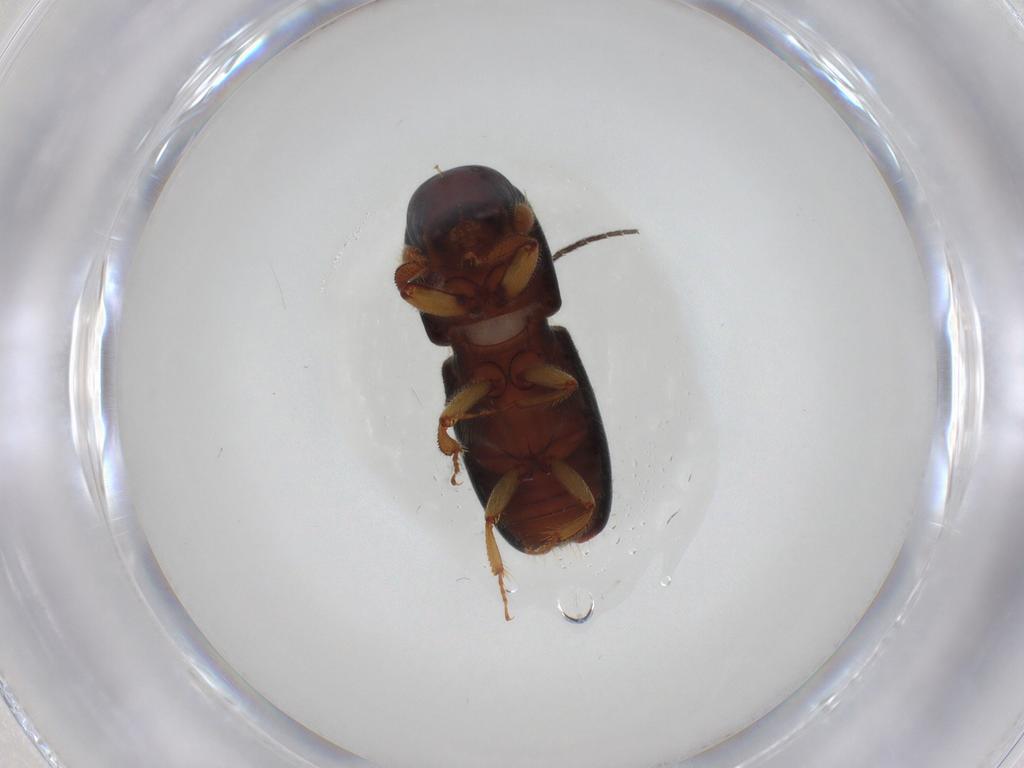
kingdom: Animalia
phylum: Arthropoda
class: Insecta
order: Coleoptera
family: Curculionidae
